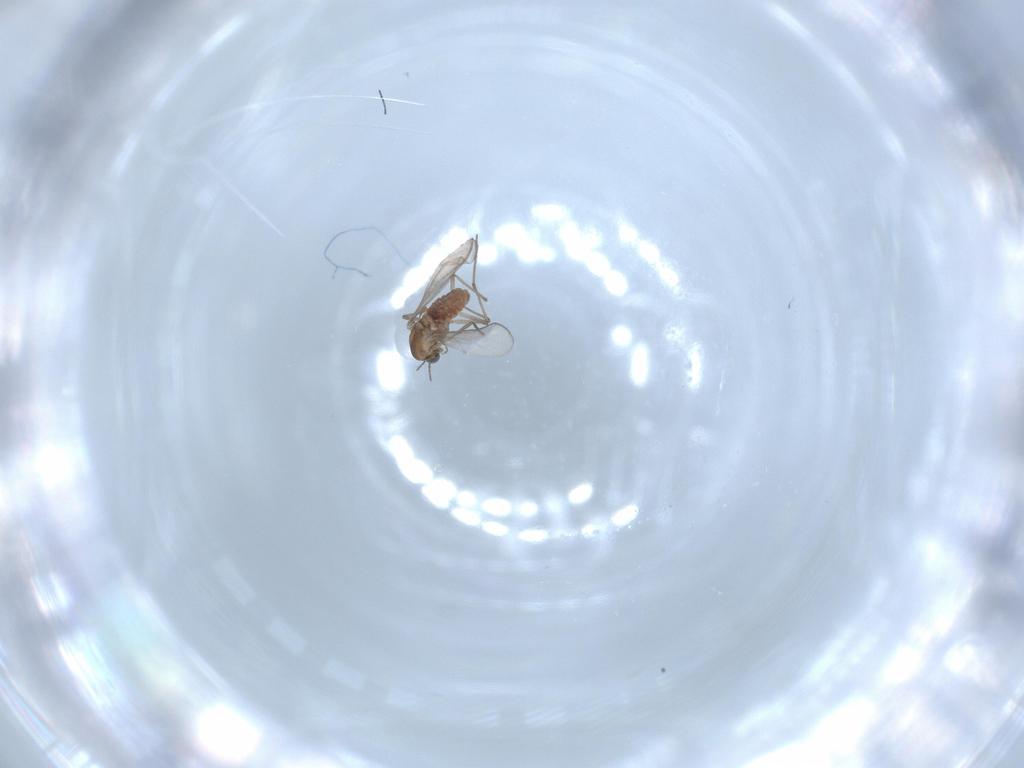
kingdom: Animalia
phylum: Arthropoda
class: Insecta
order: Diptera
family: Chironomidae
